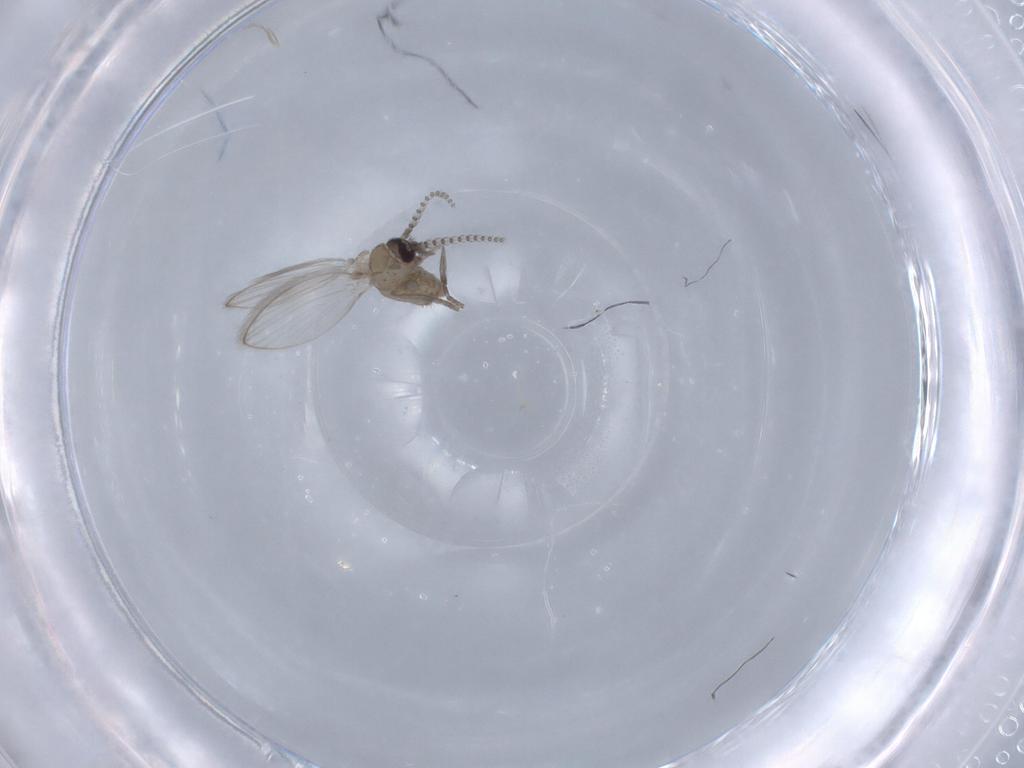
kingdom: Animalia
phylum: Arthropoda
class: Insecta
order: Diptera
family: Psychodidae
